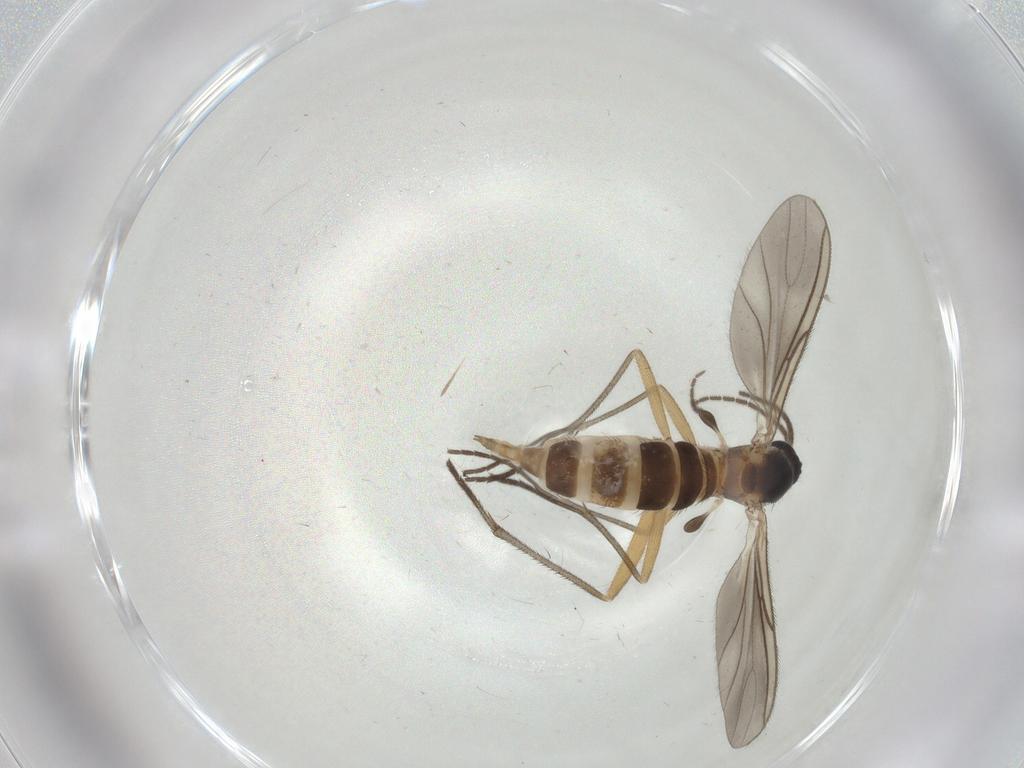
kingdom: Animalia
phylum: Arthropoda
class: Insecta
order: Diptera
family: Sciaridae
